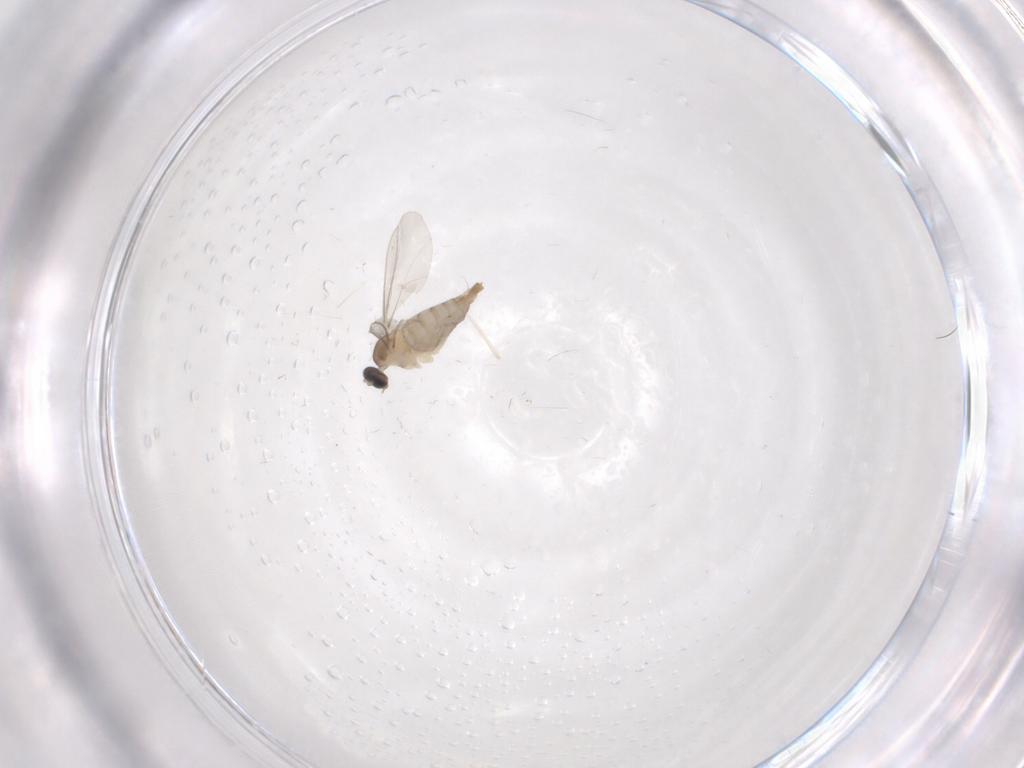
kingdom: Animalia
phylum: Arthropoda
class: Insecta
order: Diptera
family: Cecidomyiidae
